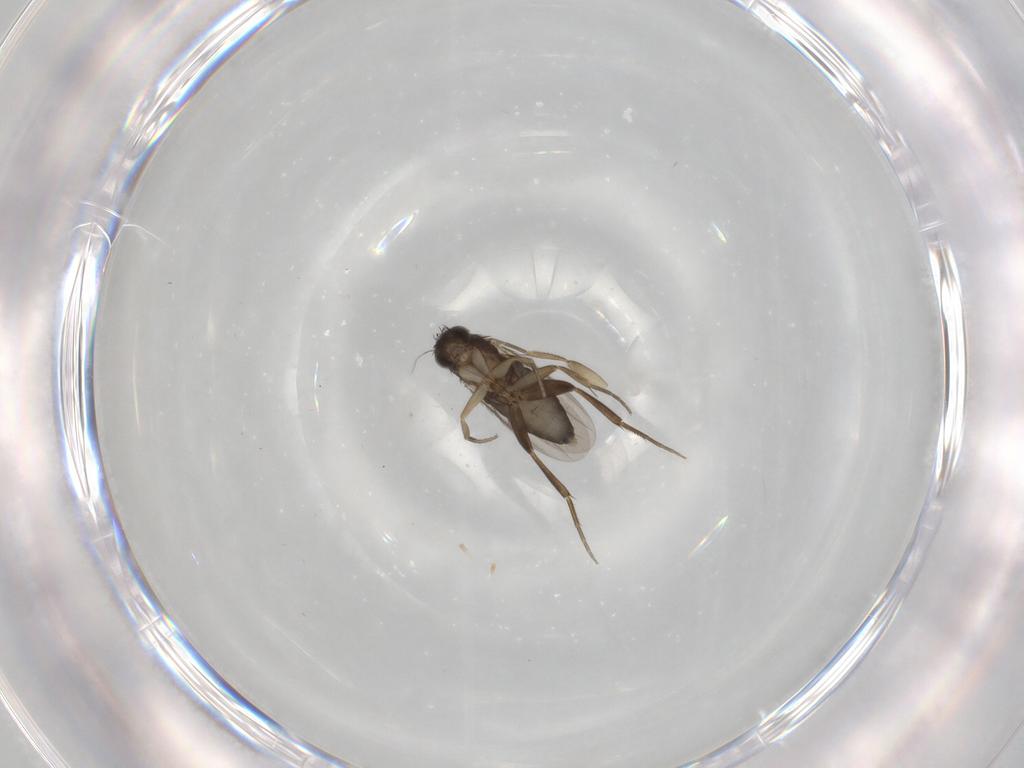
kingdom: Animalia
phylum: Arthropoda
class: Insecta
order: Diptera
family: Phoridae
